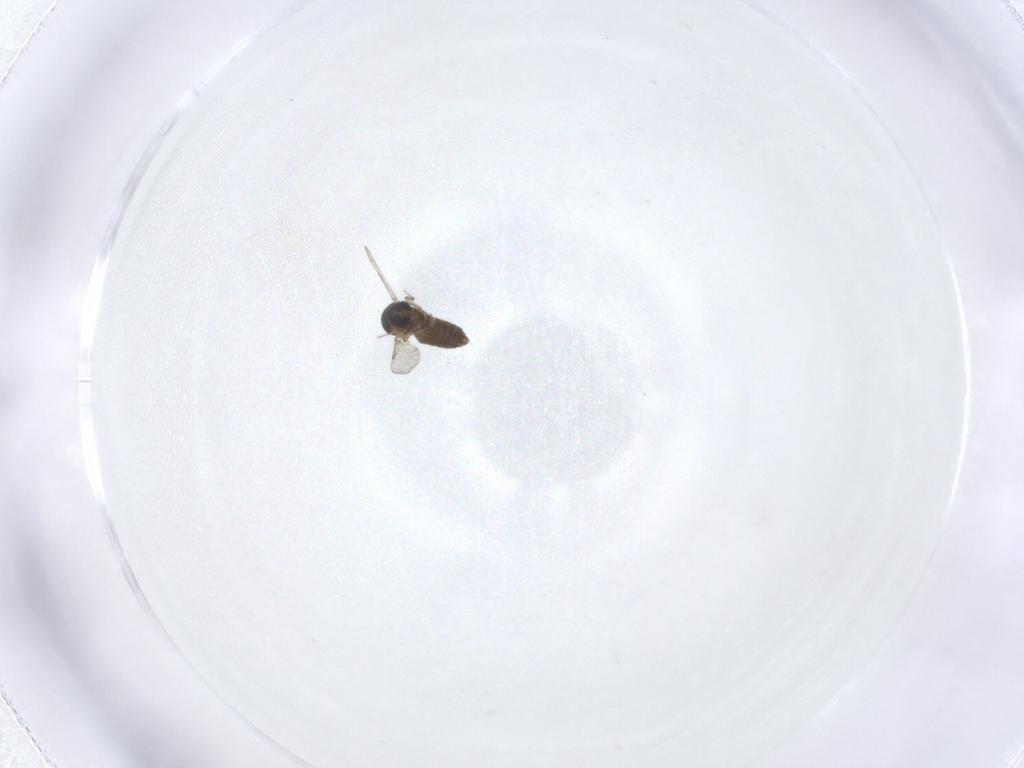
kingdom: Animalia
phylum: Arthropoda
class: Insecta
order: Diptera
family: Ceratopogonidae
